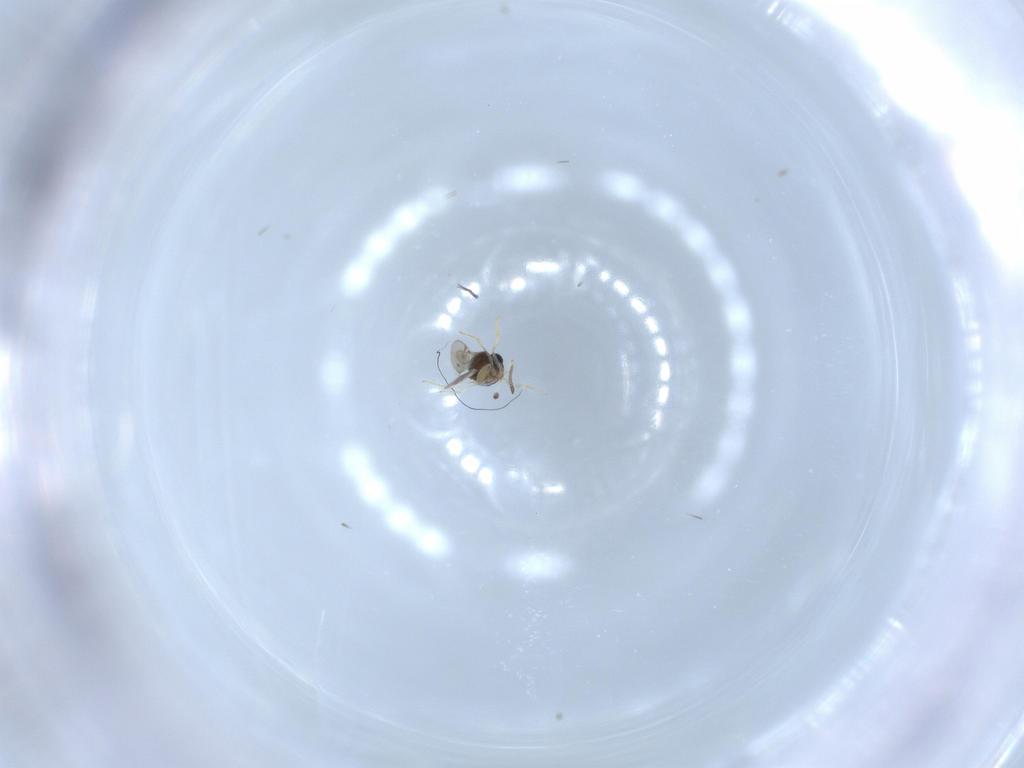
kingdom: Animalia
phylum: Arthropoda
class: Insecta
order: Hymenoptera
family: Scelionidae
